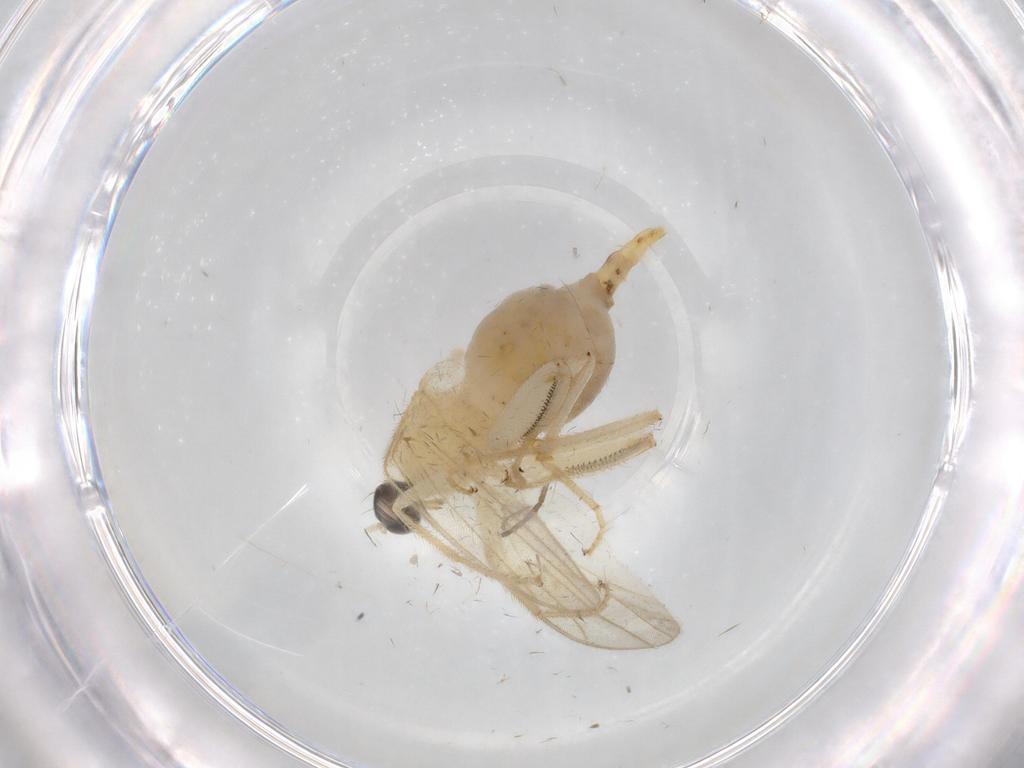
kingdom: Animalia
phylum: Arthropoda
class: Insecta
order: Diptera
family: Hybotidae
